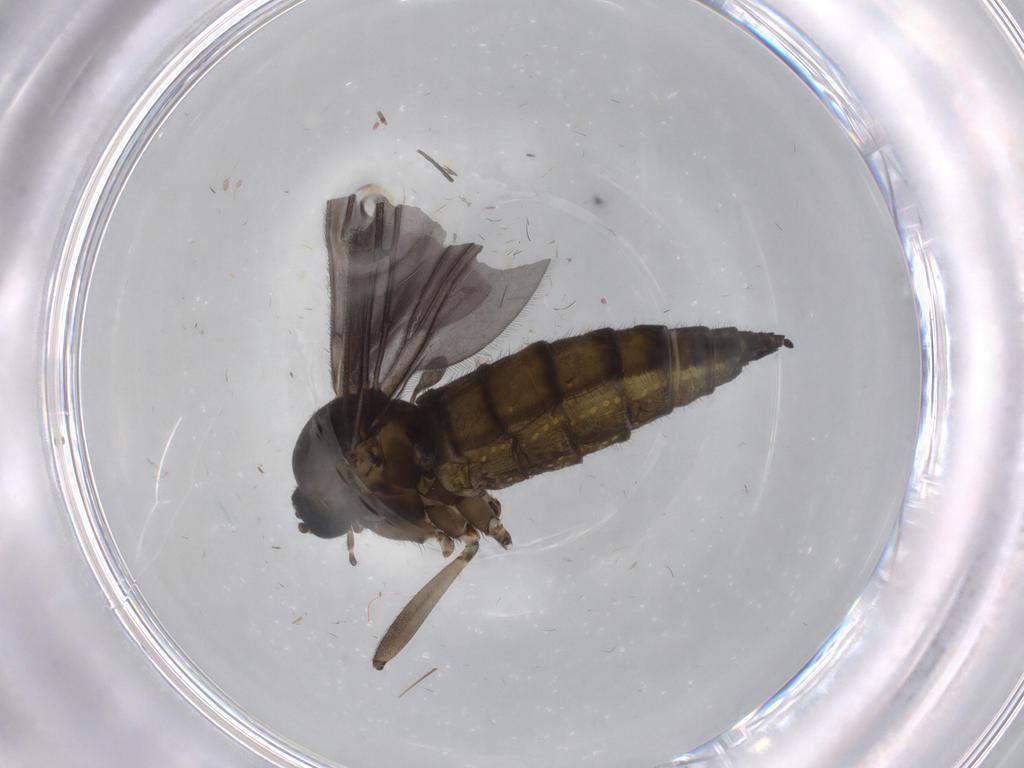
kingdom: Animalia
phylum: Arthropoda
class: Insecta
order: Diptera
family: Sciaridae
